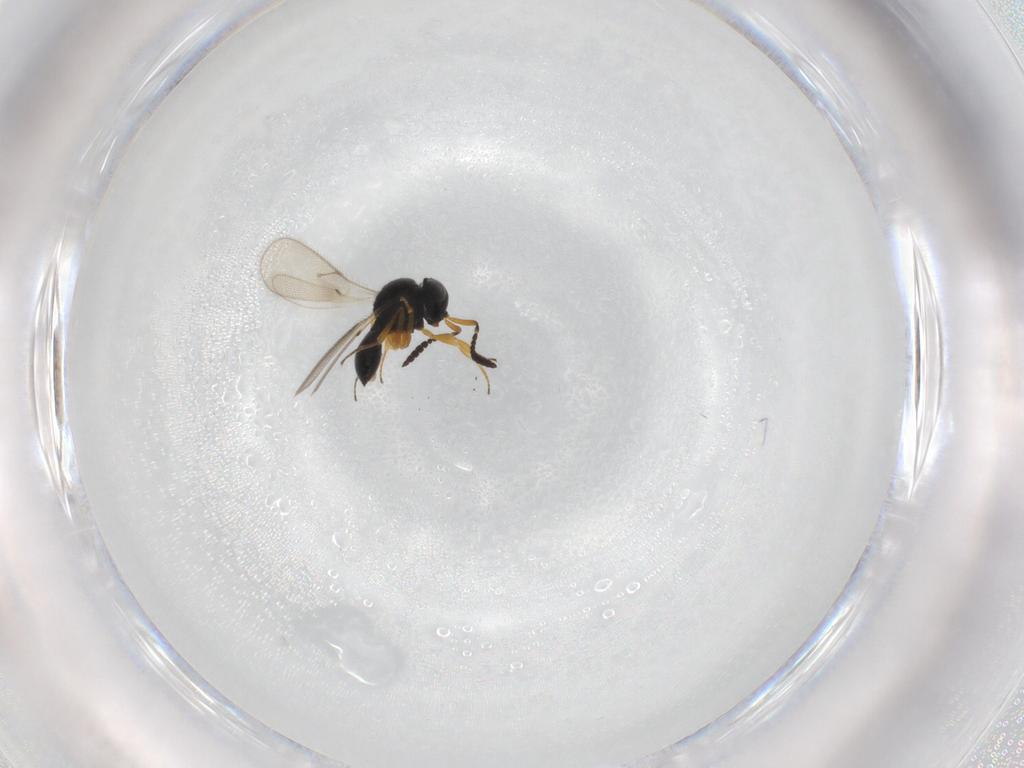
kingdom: Animalia
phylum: Arthropoda
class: Insecta
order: Hymenoptera
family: Scelionidae
